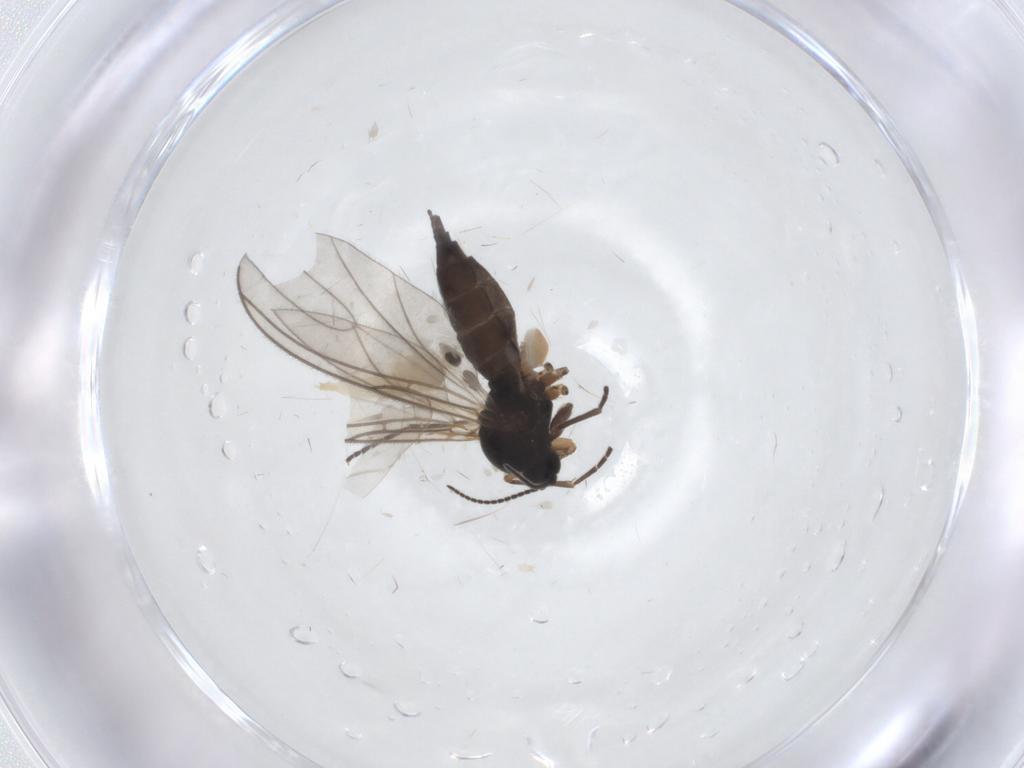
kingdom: Animalia
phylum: Arthropoda
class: Insecta
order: Diptera
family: Cecidomyiidae
